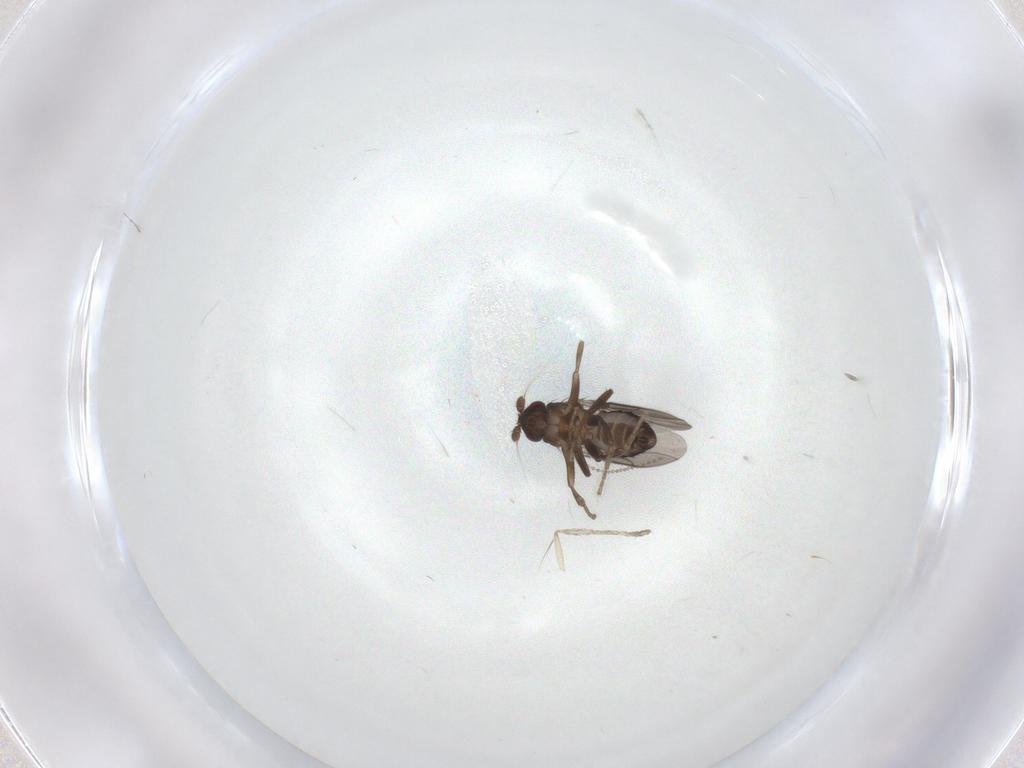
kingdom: Animalia
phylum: Arthropoda
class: Insecta
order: Diptera
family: Sphaeroceridae
